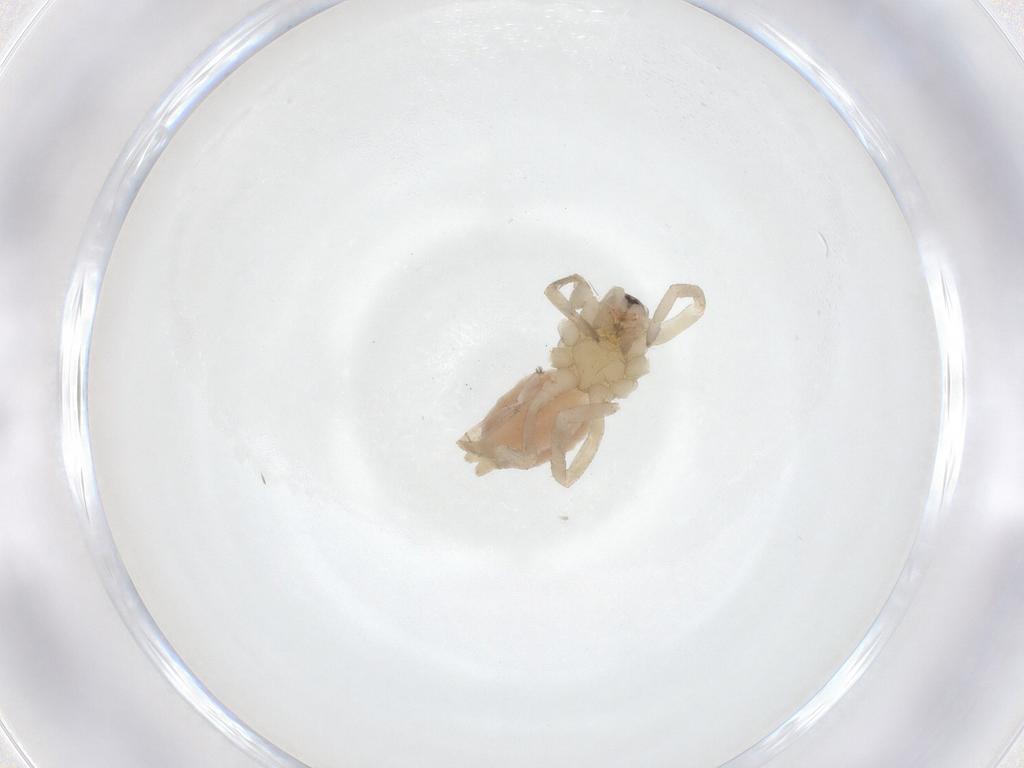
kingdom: Animalia
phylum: Arthropoda
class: Arachnida
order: Araneae
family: Clubionidae
